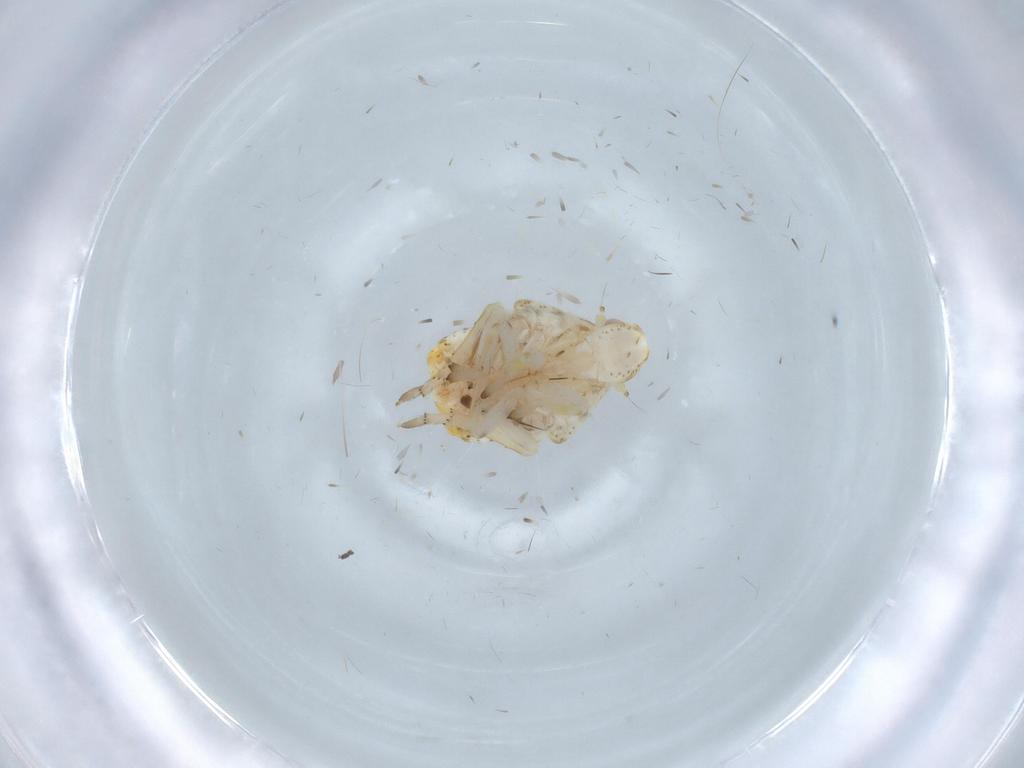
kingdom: Animalia
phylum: Arthropoda
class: Insecta
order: Hemiptera
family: Fulgoroidea_incertae_sedis
